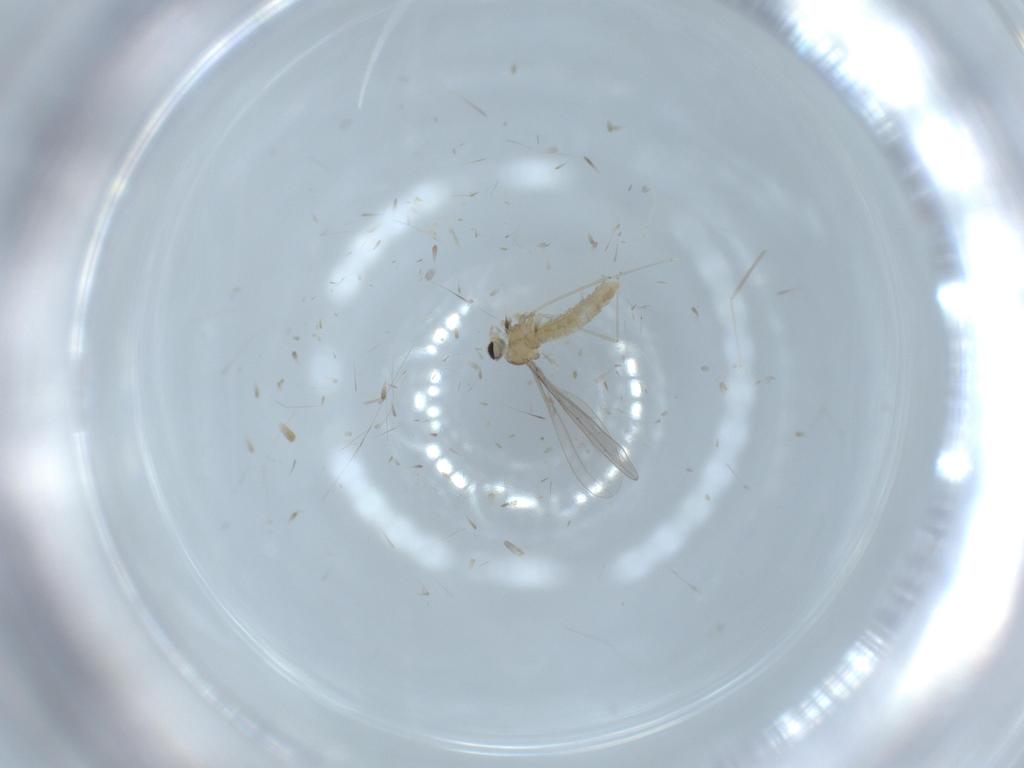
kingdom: Animalia
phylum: Arthropoda
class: Insecta
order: Diptera
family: Cecidomyiidae
